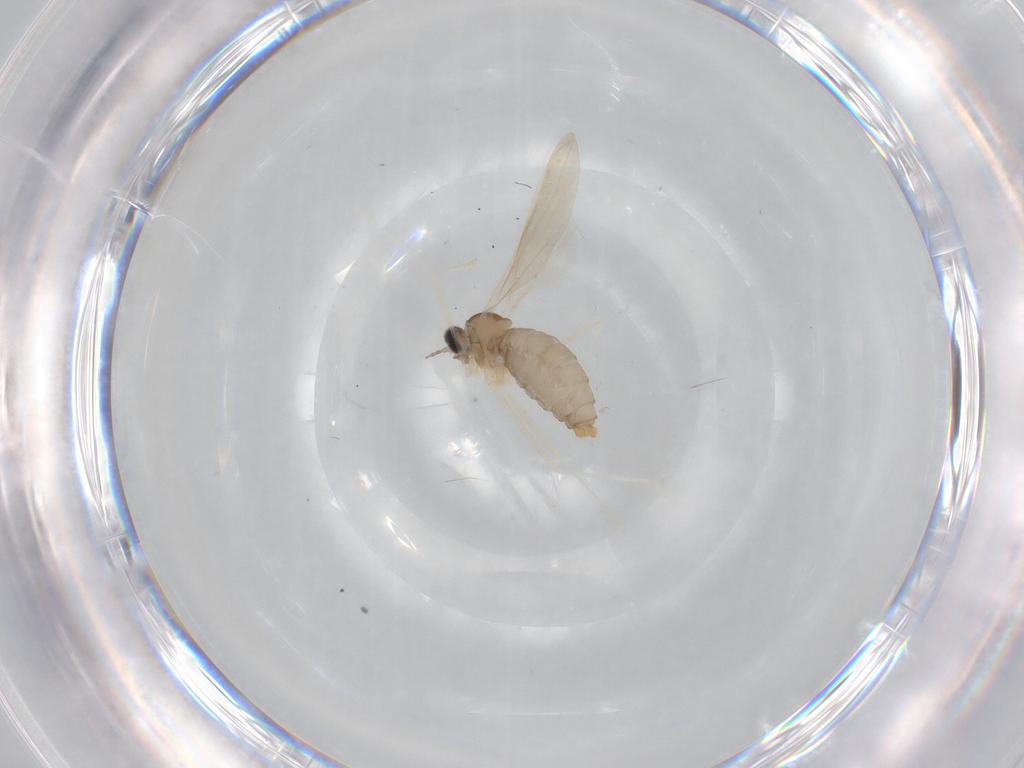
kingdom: Animalia
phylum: Arthropoda
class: Insecta
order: Diptera
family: Cecidomyiidae
